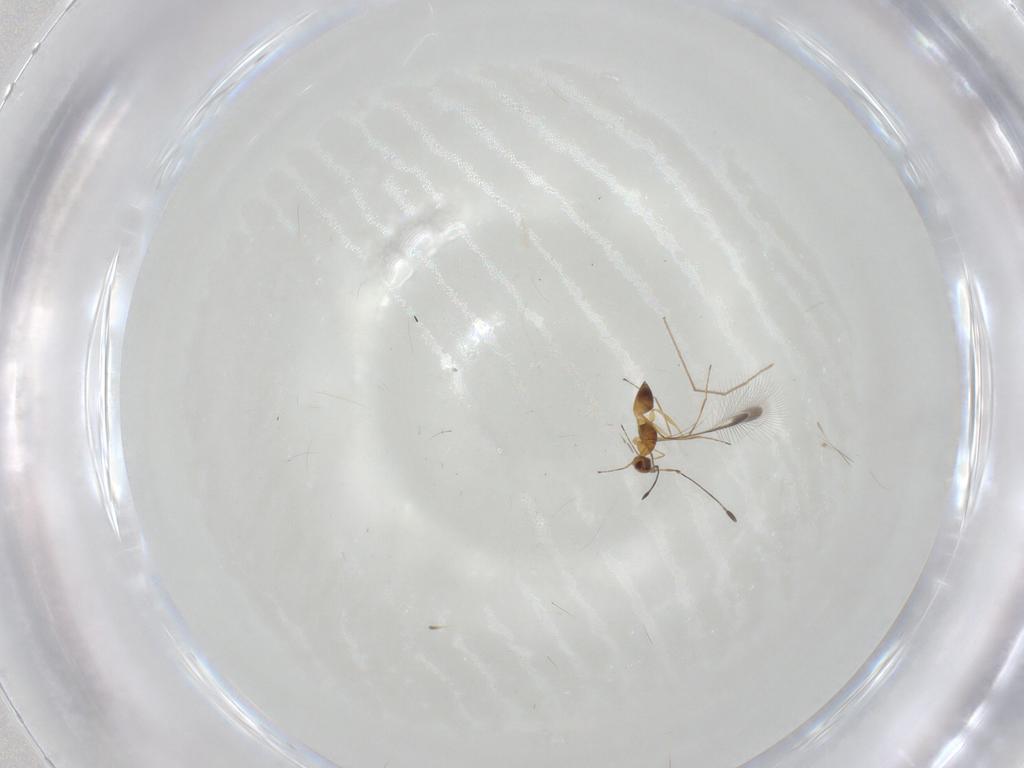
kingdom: Animalia
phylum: Arthropoda
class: Insecta
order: Hymenoptera
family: Mymaridae
